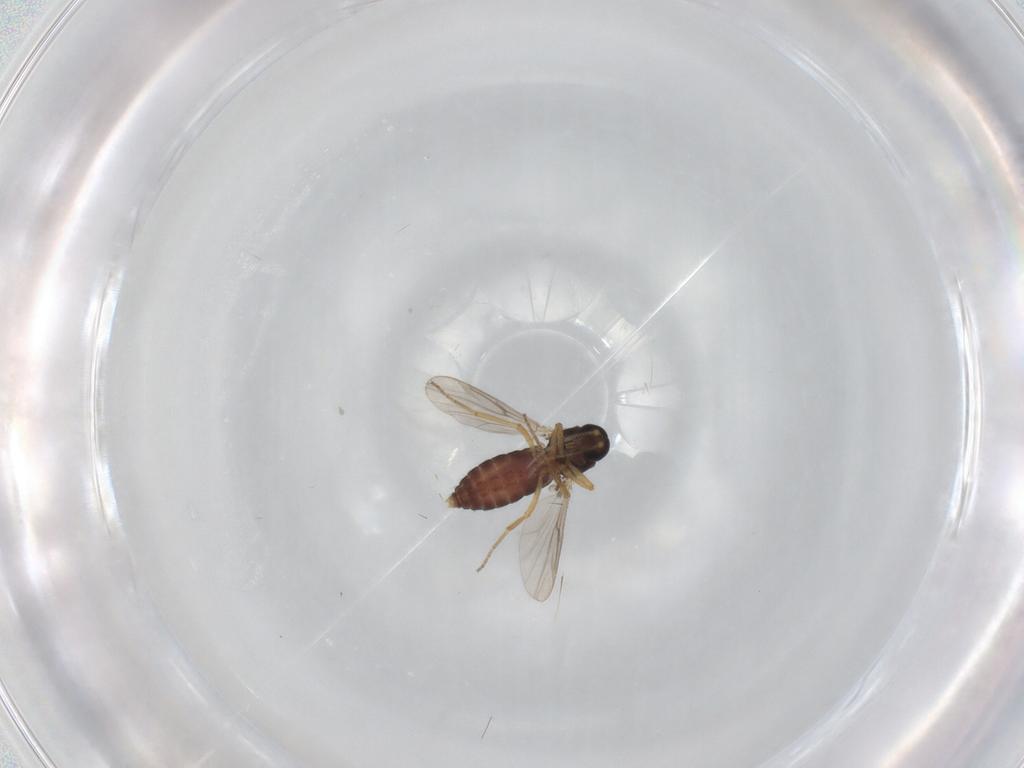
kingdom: Animalia
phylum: Arthropoda
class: Insecta
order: Diptera
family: Ceratopogonidae
